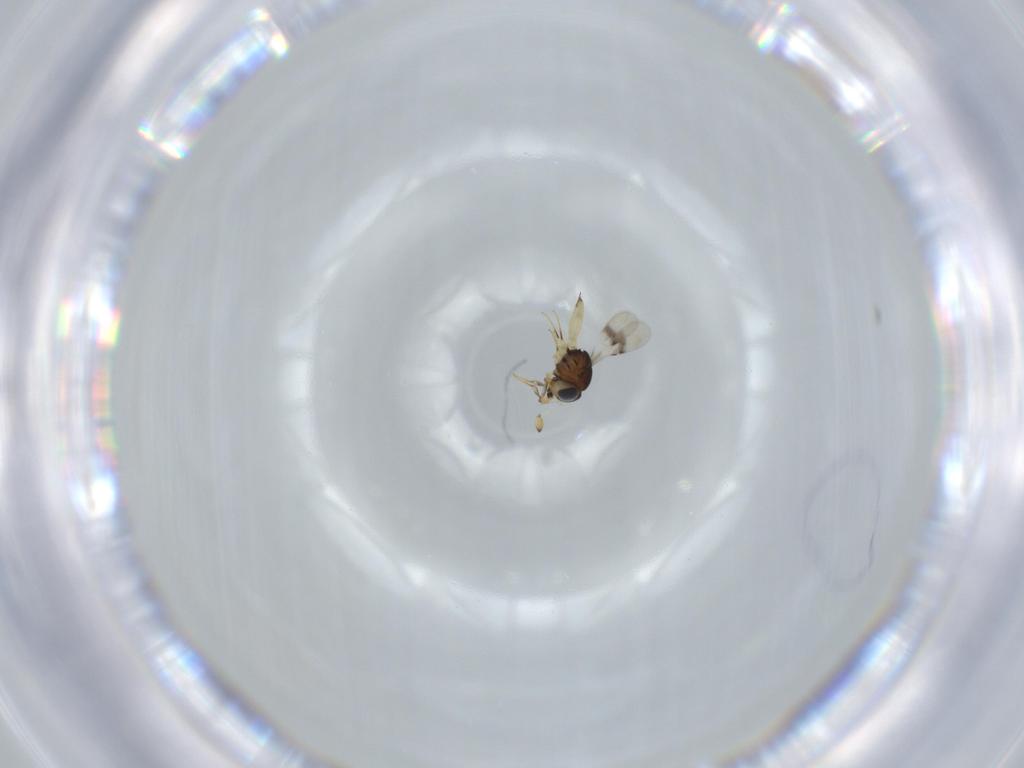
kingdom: Animalia
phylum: Arthropoda
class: Insecta
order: Hymenoptera
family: Scelionidae
